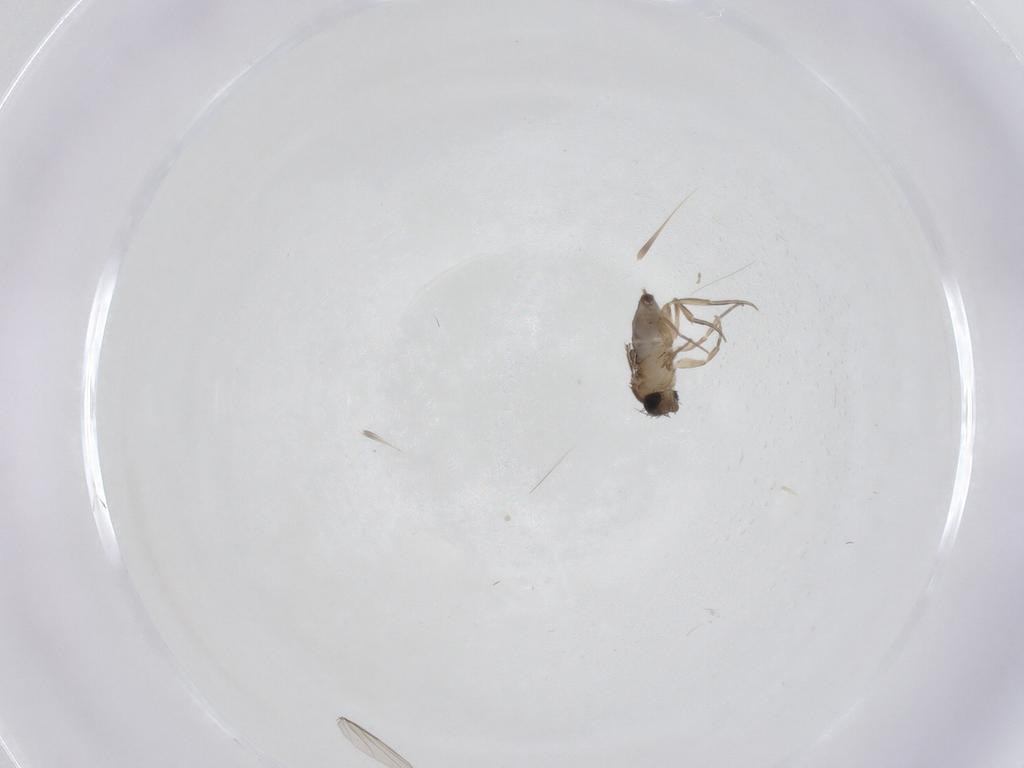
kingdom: Animalia
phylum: Arthropoda
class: Insecta
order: Diptera
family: Phoridae
